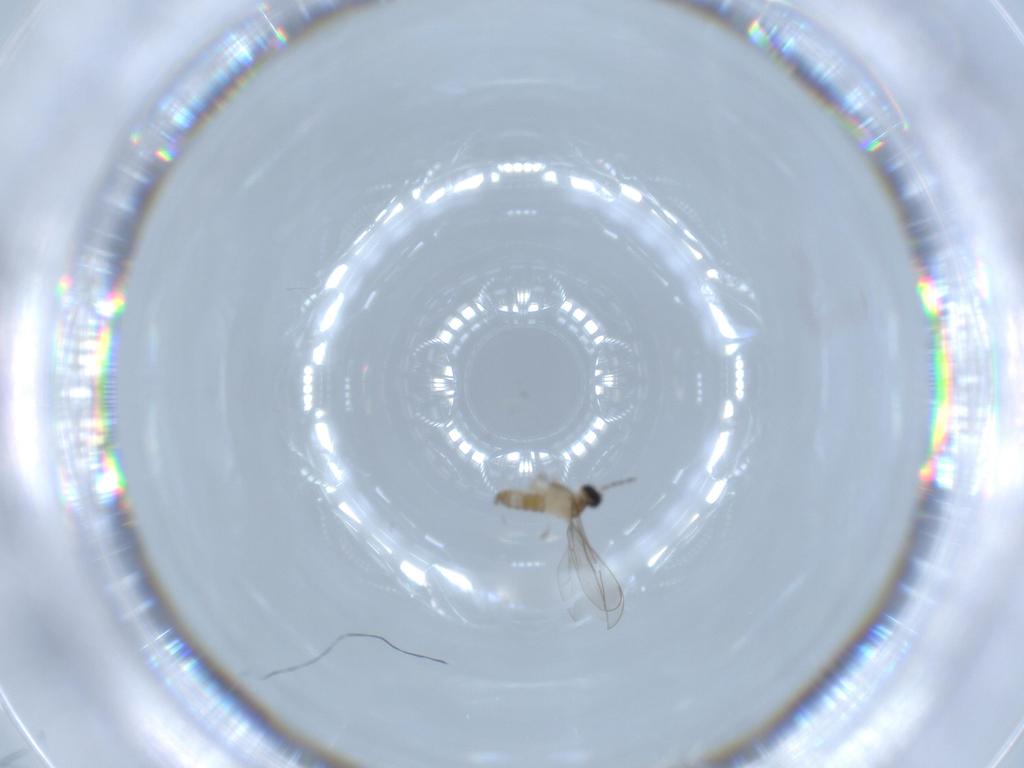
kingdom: Animalia
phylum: Arthropoda
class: Insecta
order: Diptera
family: Cecidomyiidae
